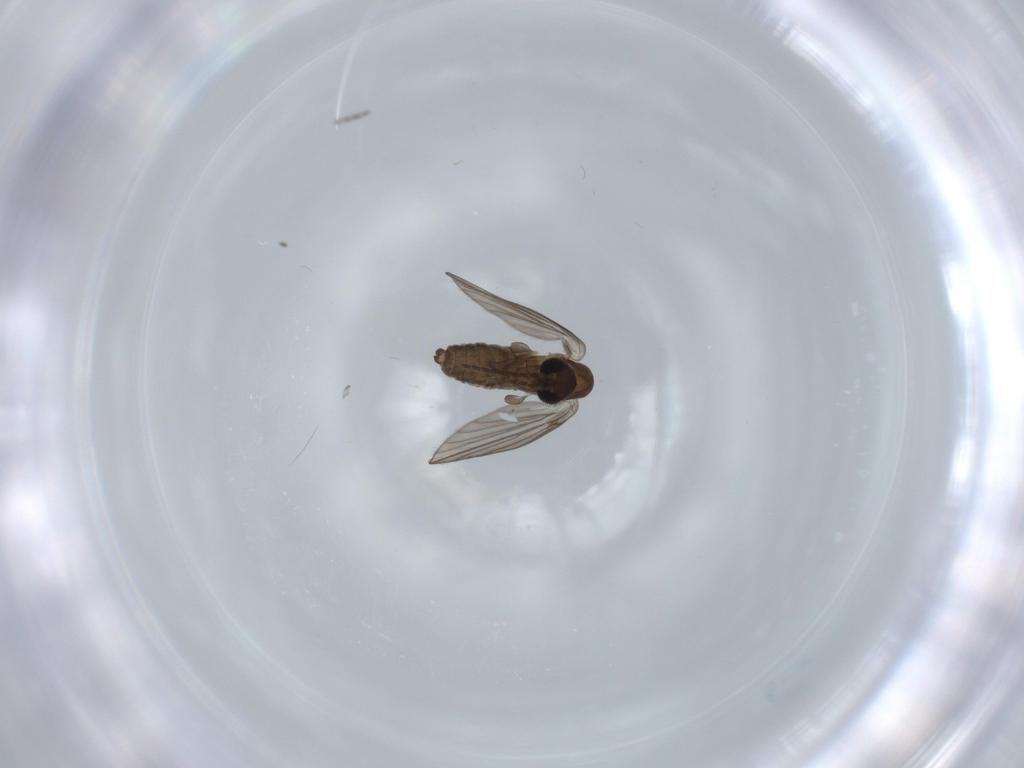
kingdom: Animalia
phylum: Arthropoda
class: Insecta
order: Diptera
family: Psychodidae
